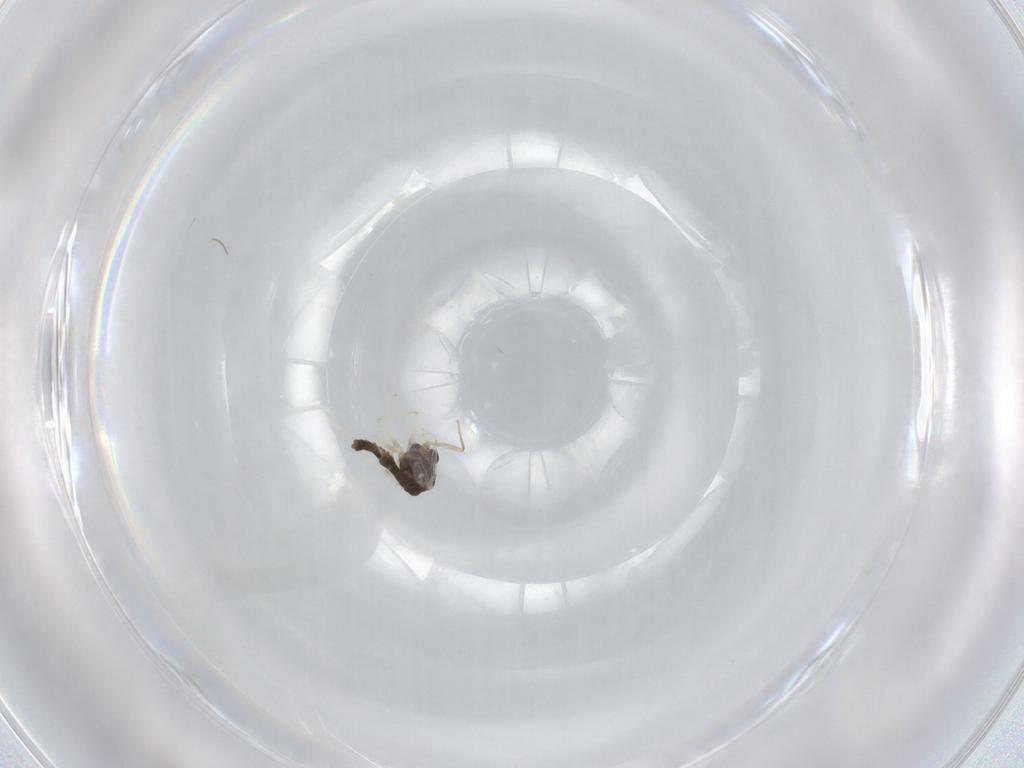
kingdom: Animalia
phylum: Arthropoda
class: Insecta
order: Diptera
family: Chironomidae
